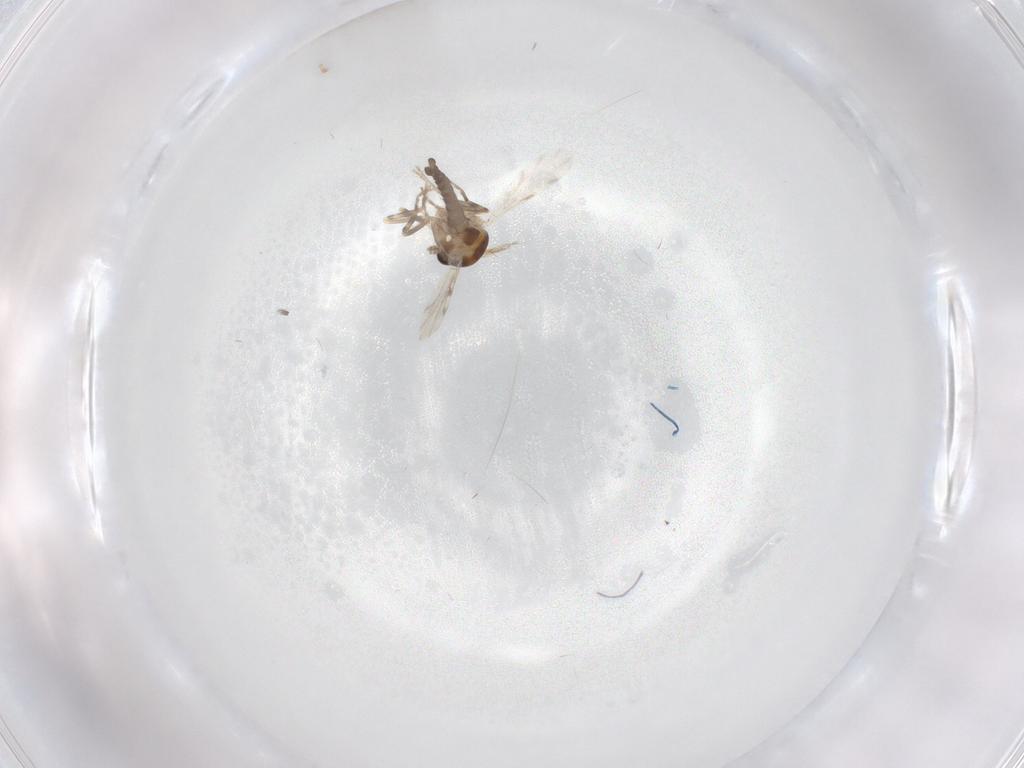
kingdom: Animalia
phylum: Arthropoda
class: Insecta
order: Diptera
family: Ceratopogonidae
